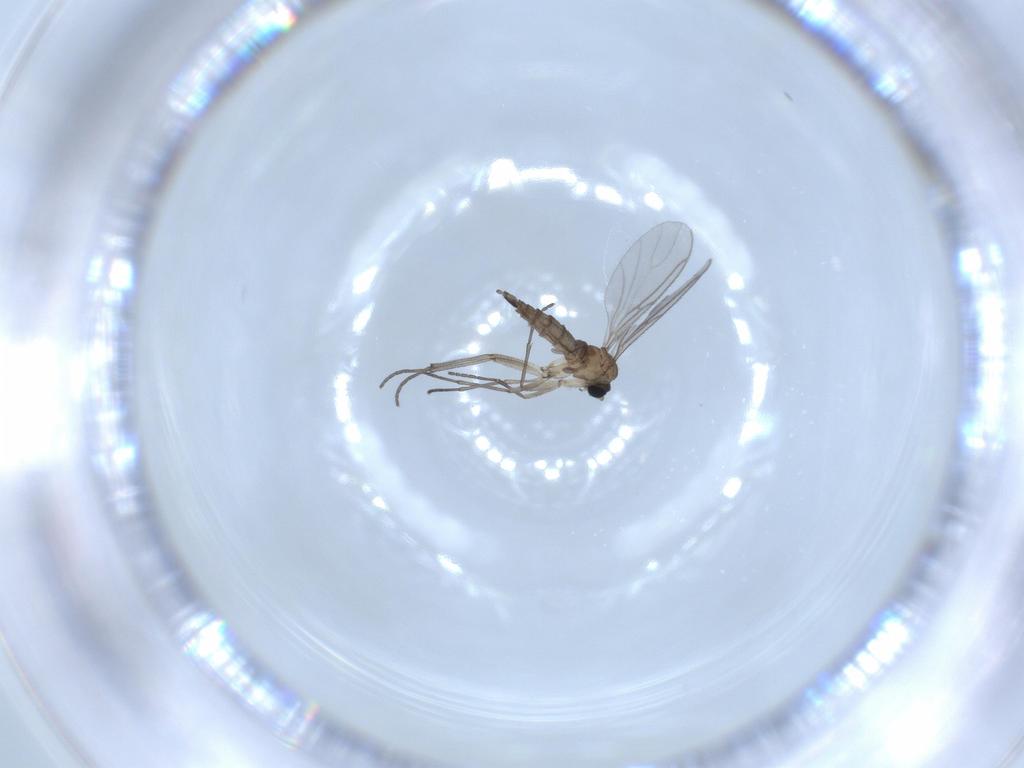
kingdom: Animalia
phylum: Arthropoda
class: Insecta
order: Diptera
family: Sciaridae
